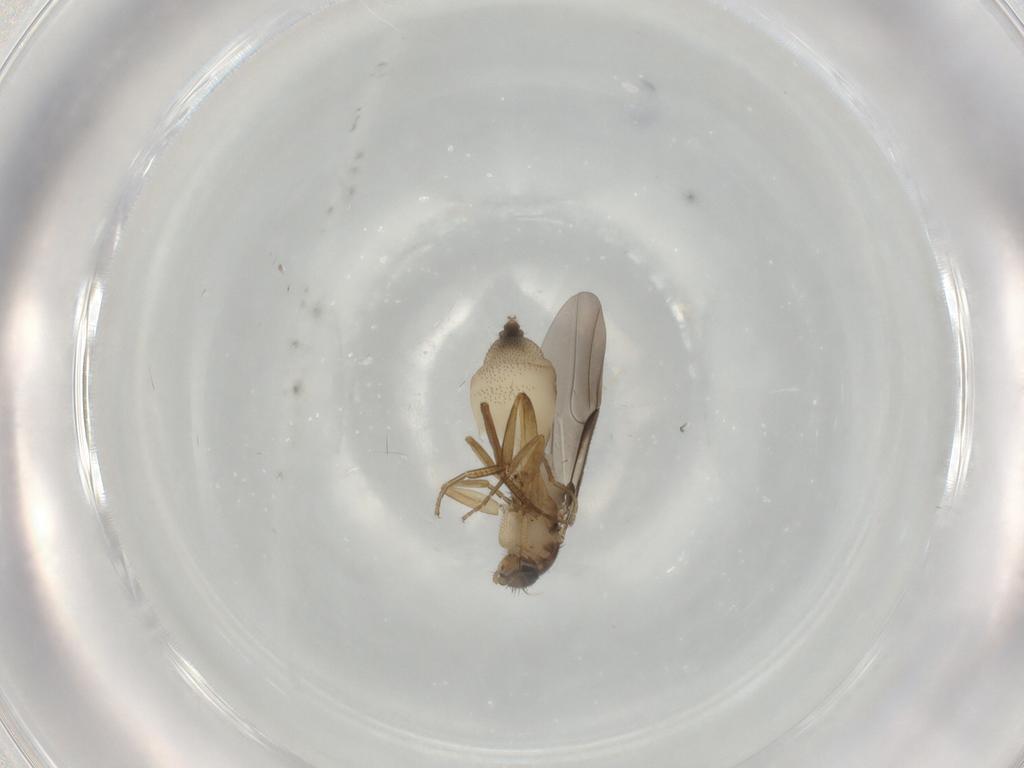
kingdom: Animalia
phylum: Arthropoda
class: Insecta
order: Diptera
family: Phoridae
